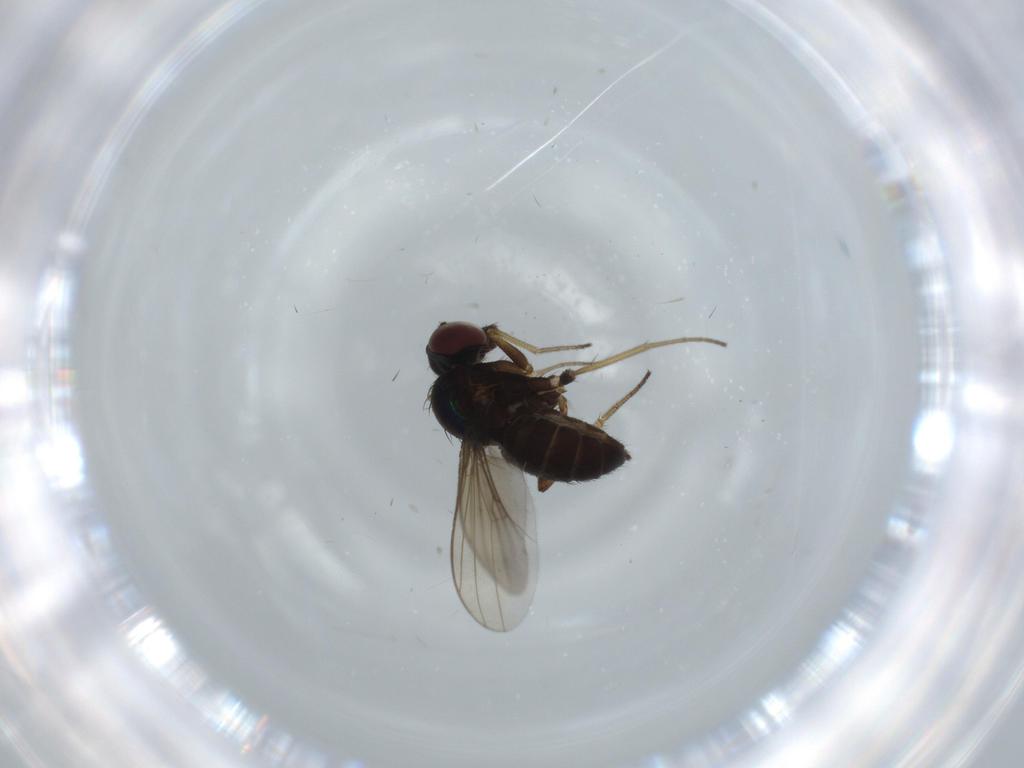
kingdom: Animalia
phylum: Arthropoda
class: Insecta
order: Diptera
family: Dolichopodidae
